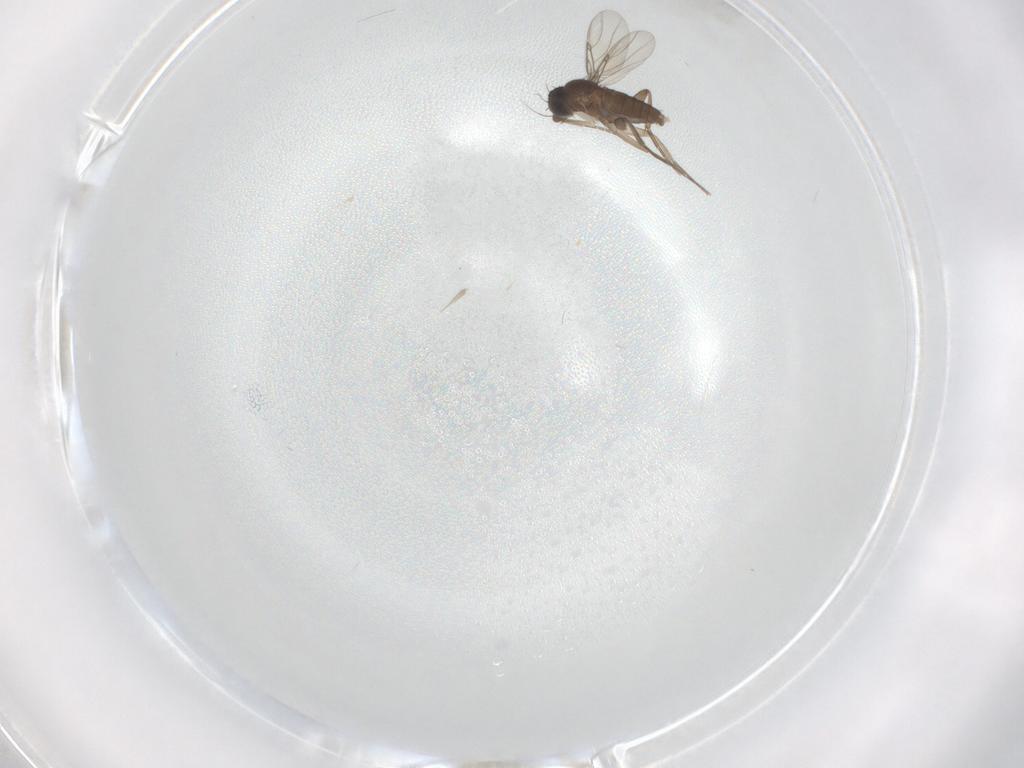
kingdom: Animalia
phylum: Arthropoda
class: Insecta
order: Diptera
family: Phoridae
